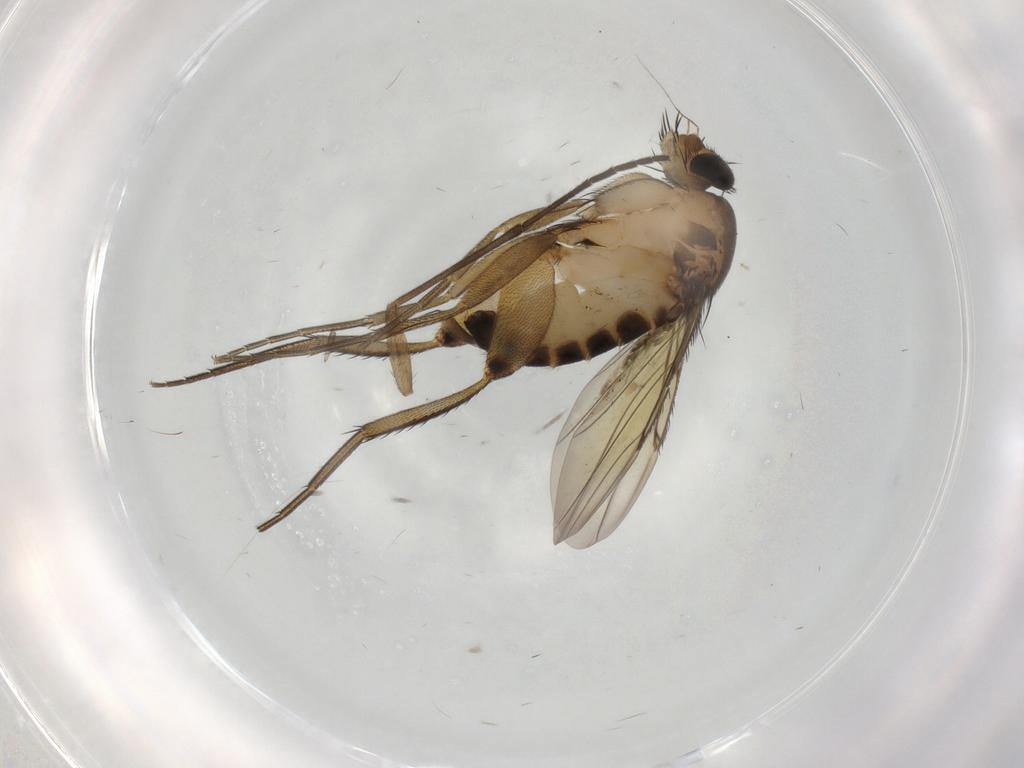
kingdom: Animalia
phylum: Arthropoda
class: Insecta
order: Diptera
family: Phoridae
